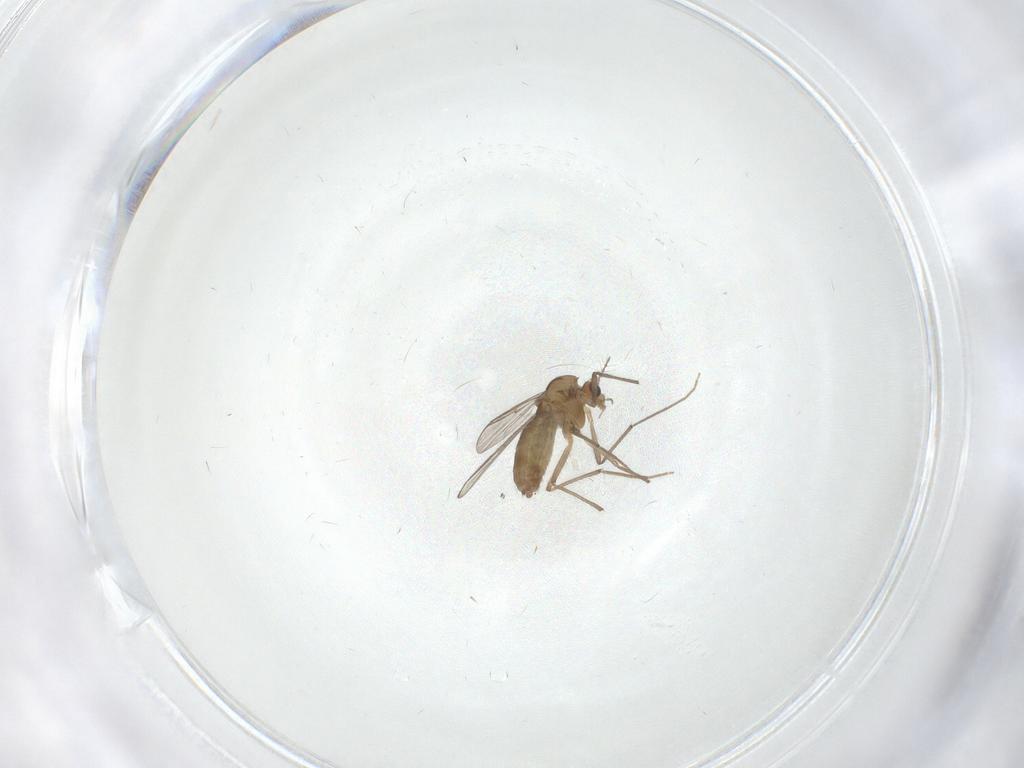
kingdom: Animalia
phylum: Arthropoda
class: Insecta
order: Diptera
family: Chironomidae
